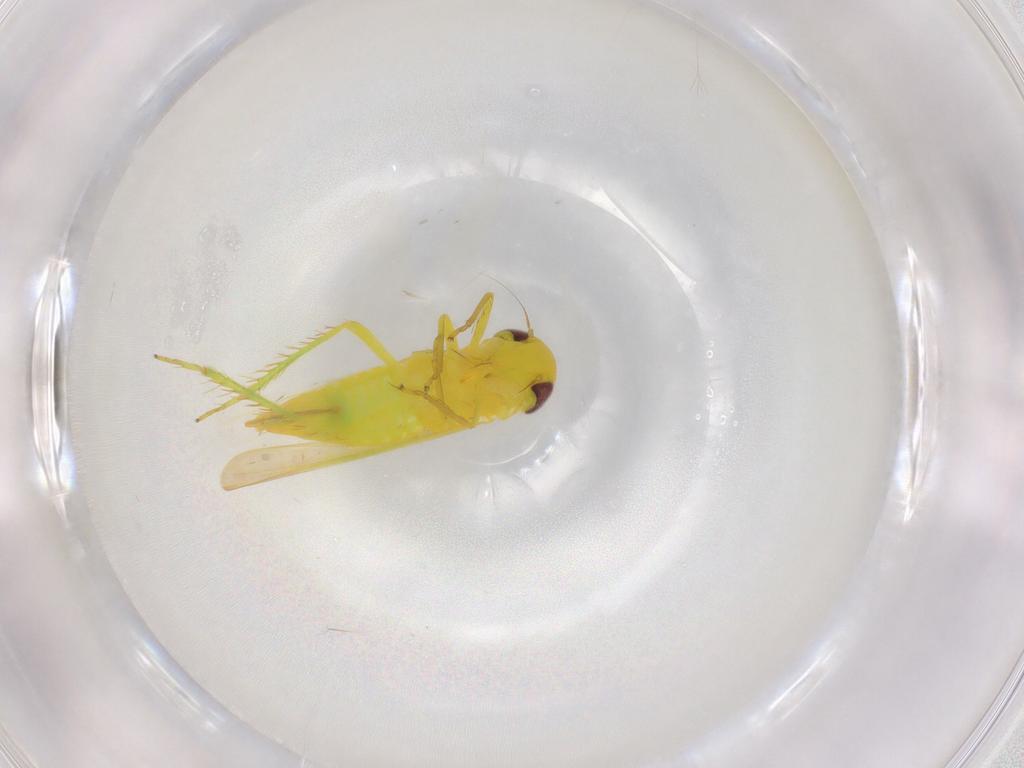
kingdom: Animalia
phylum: Arthropoda
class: Insecta
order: Hemiptera
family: Cicadellidae
